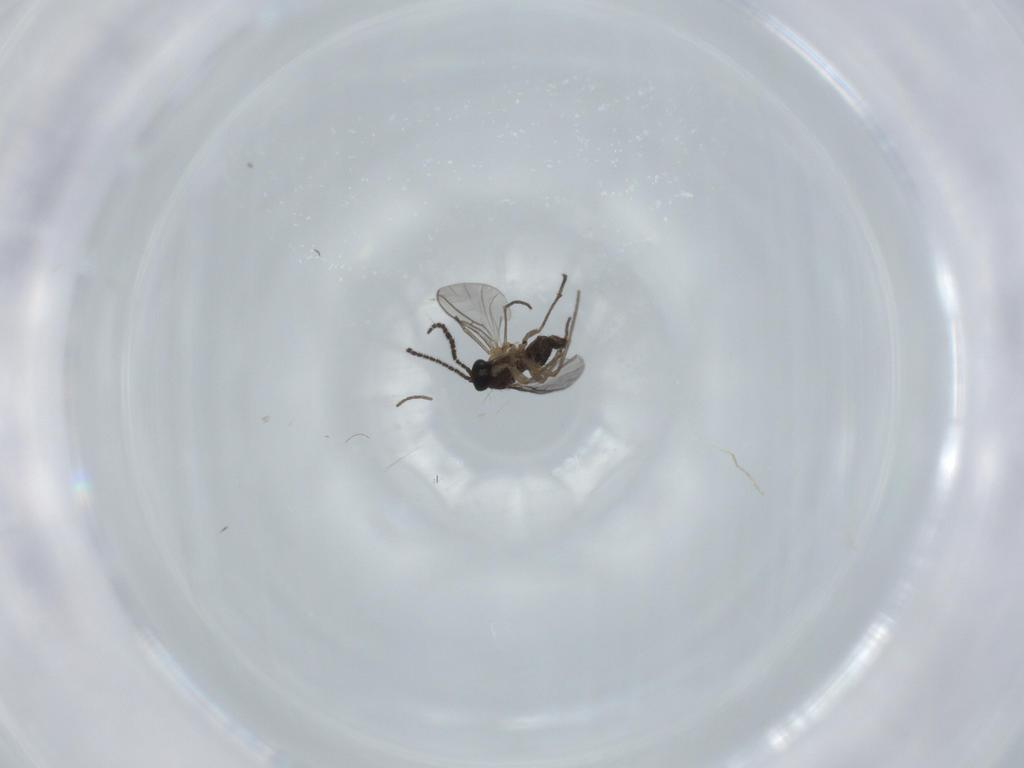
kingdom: Animalia
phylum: Arthropoda
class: Insecta
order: Diptera
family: Sciaridae
